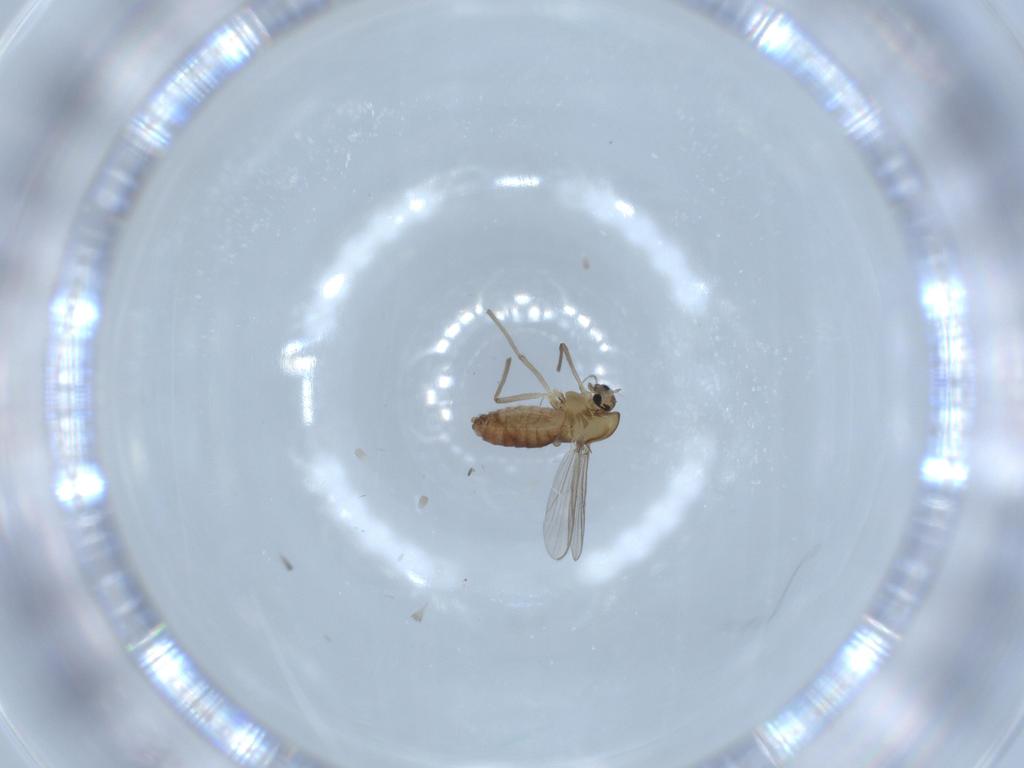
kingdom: Animalia
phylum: Arthropoda
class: Insecta
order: Diptera
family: Chironomidae
